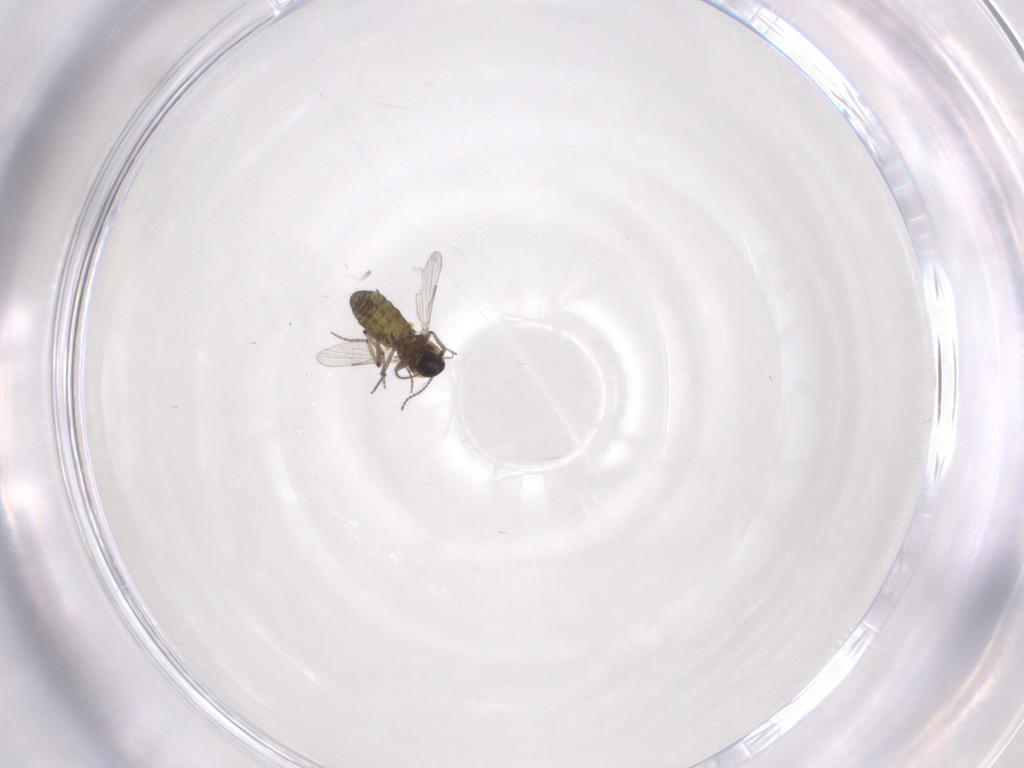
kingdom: Animalia
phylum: Arthropoda
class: Insecta
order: Diptera
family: Ceratopogonidae
